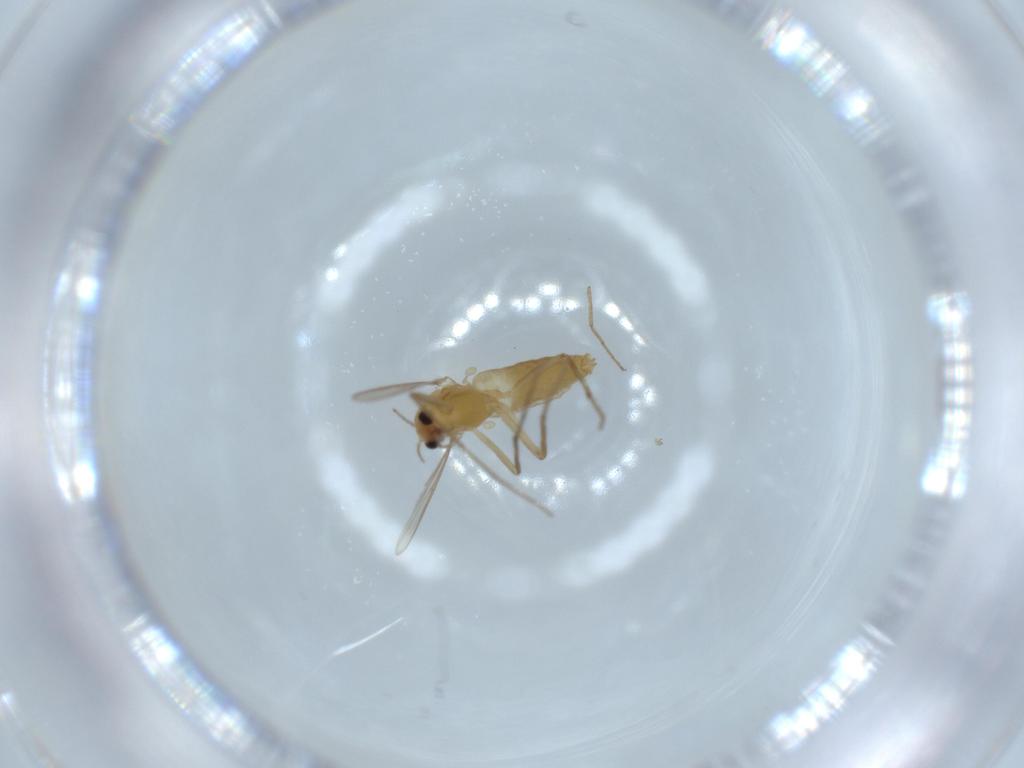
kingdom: Animalia
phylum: Arthropoda
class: Insecta
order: Diptera
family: Chironomidae
